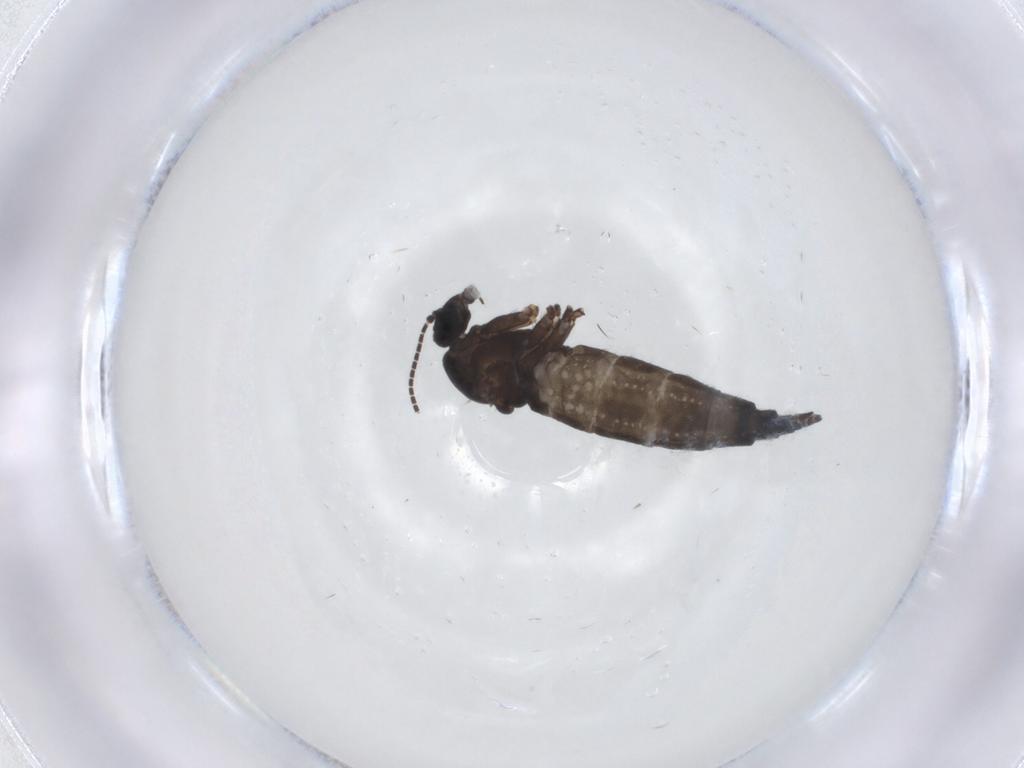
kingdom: Animalia
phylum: Arthropoda
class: Insecta
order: Diptera
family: Sciaridae
